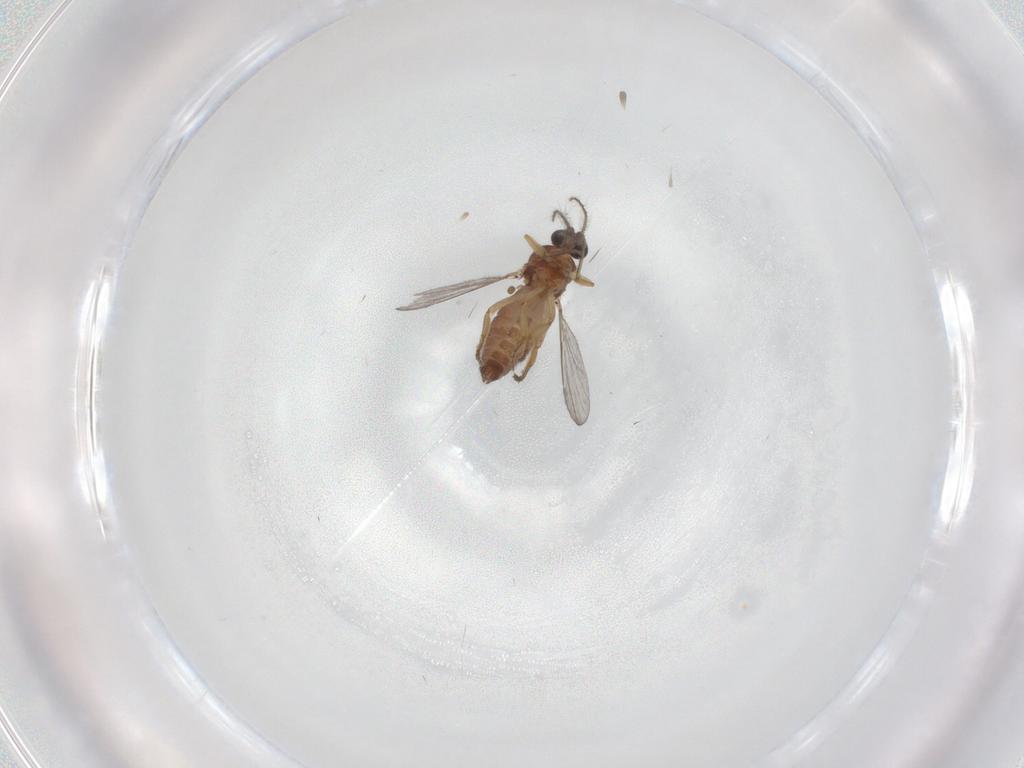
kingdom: Animalia
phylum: Arthropoda
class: Insecta
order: Diptera
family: Ceratopogonidae
